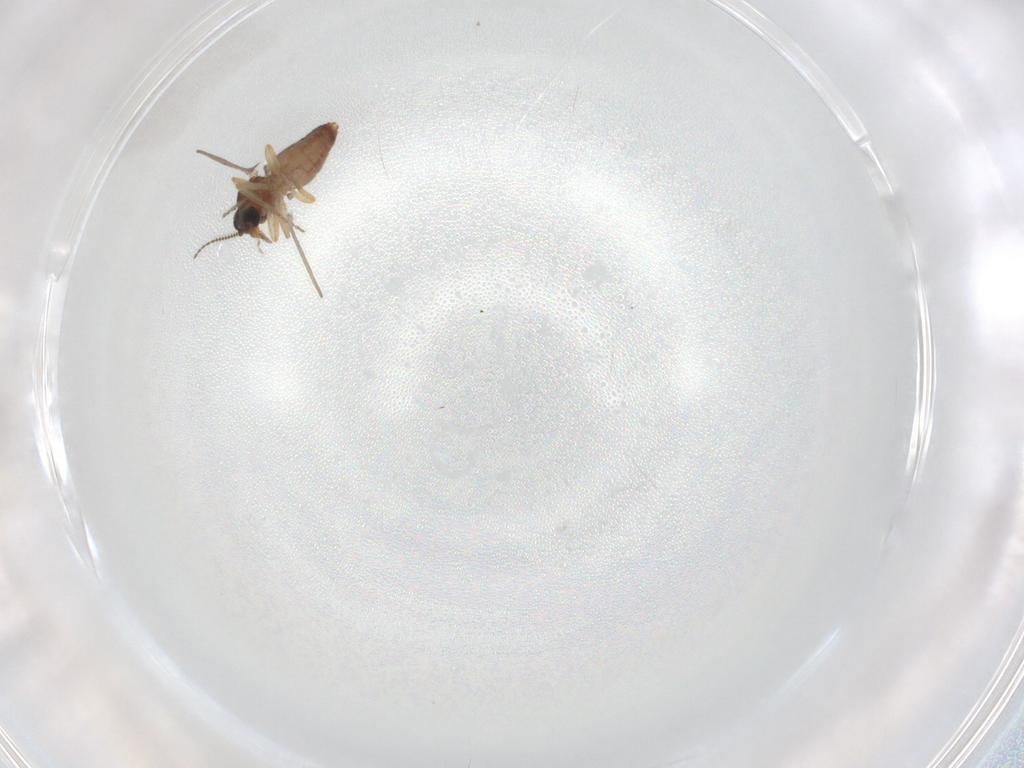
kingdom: Animalia
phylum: Arthropoda
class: Insecta
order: Diptera
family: Ceratopogonidae
